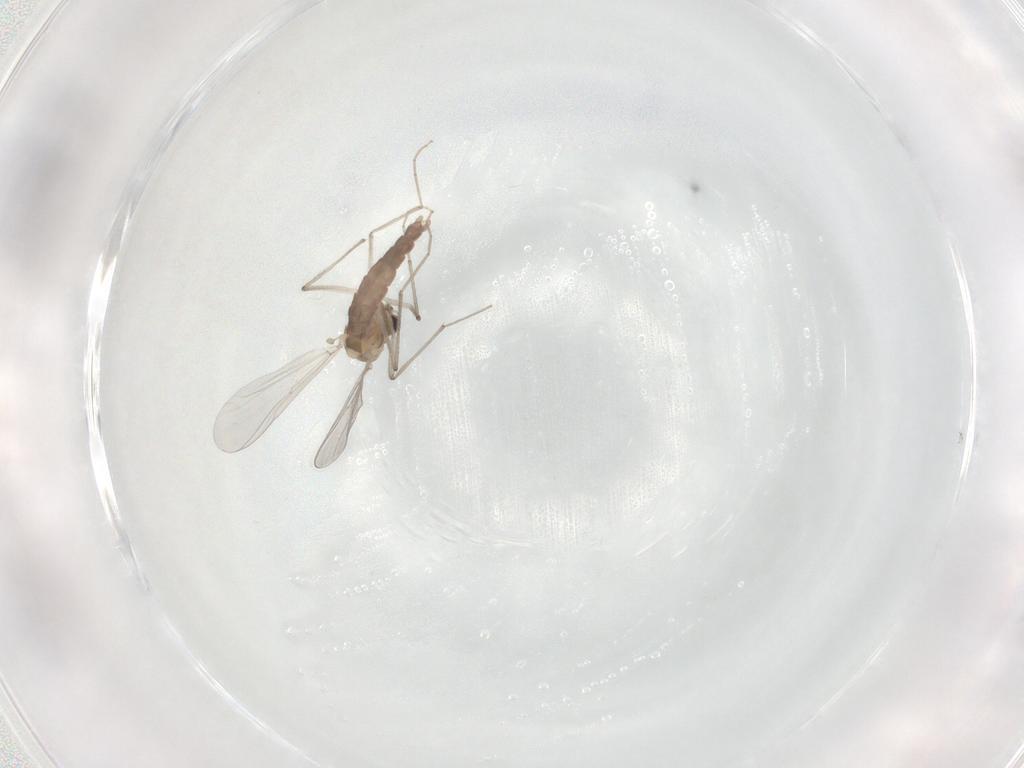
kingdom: Animalia
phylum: Arthropoda
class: Insecta
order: Diptera
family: Chironomidae
